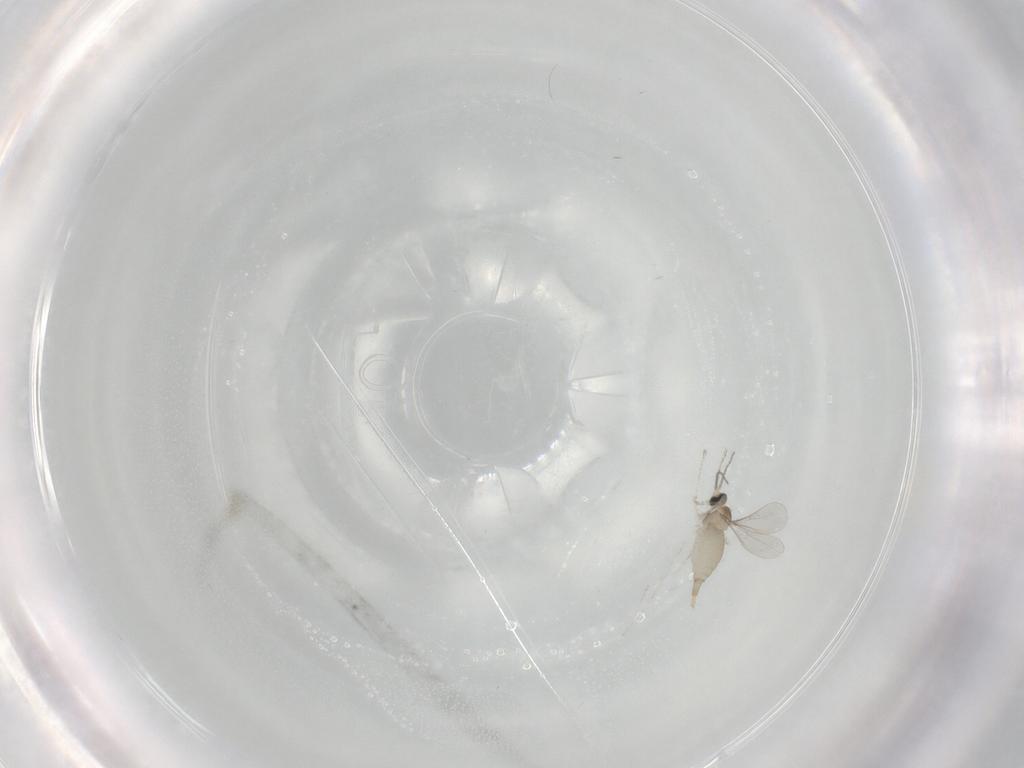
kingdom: Animalia
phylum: Arthropoda
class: Insecta
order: Diptera
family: Cecidomyiidae
